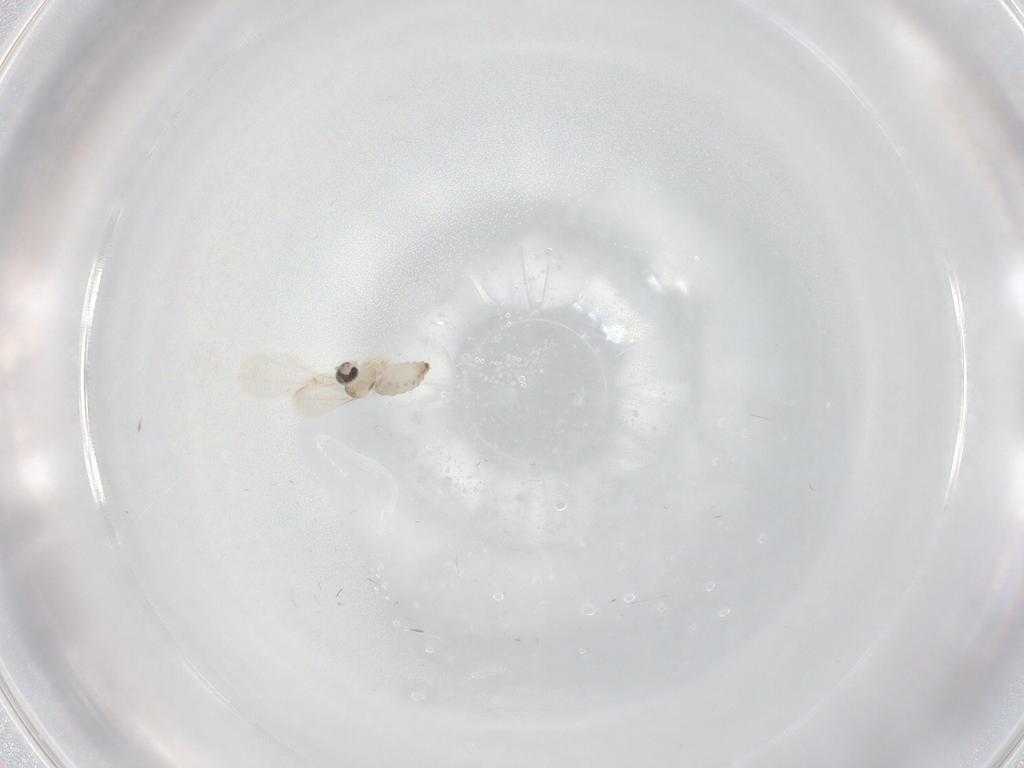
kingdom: Animalia
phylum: Arthropoda
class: Insecta
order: Diptera
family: Cecidomyiidae
